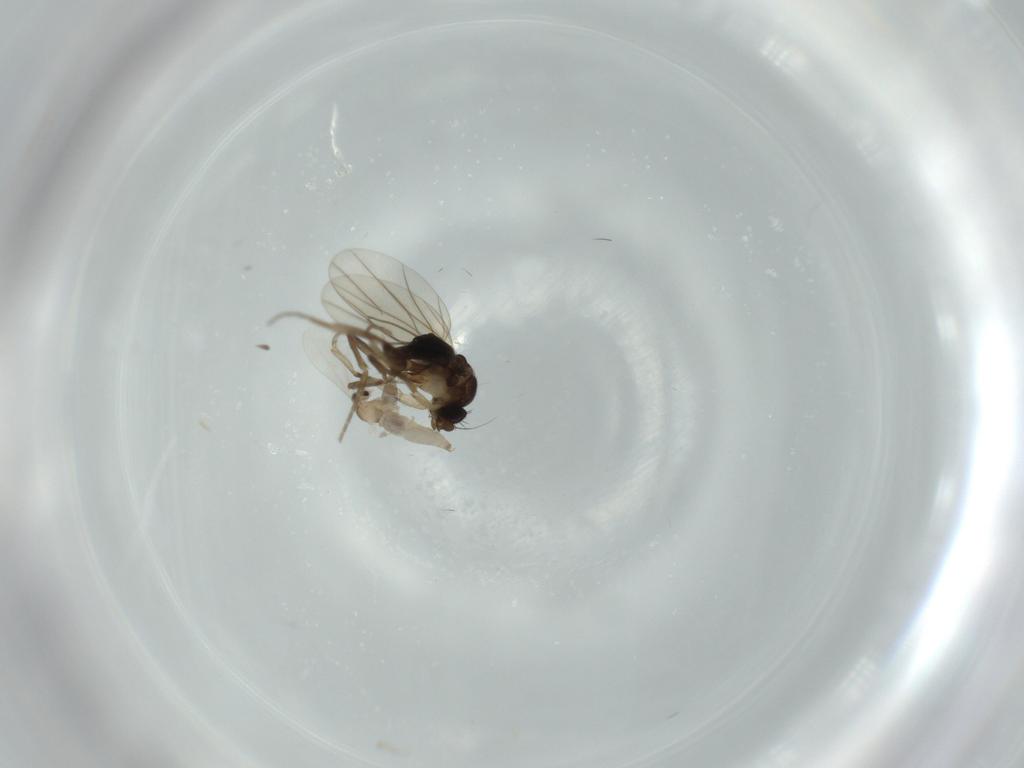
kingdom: Animalia
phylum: Arthropoda
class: Insecta
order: Diptera
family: Cecidomyiidae
